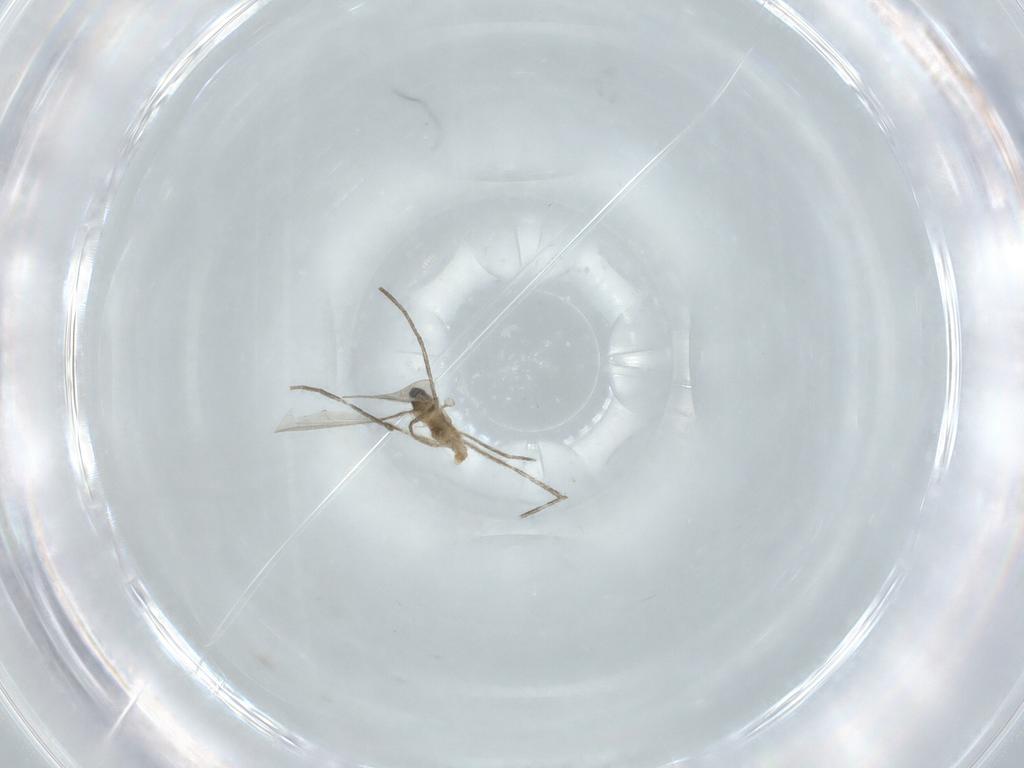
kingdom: Animalia
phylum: Arthropoda
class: Insecta
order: Diptera
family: Cecidomyiidae
